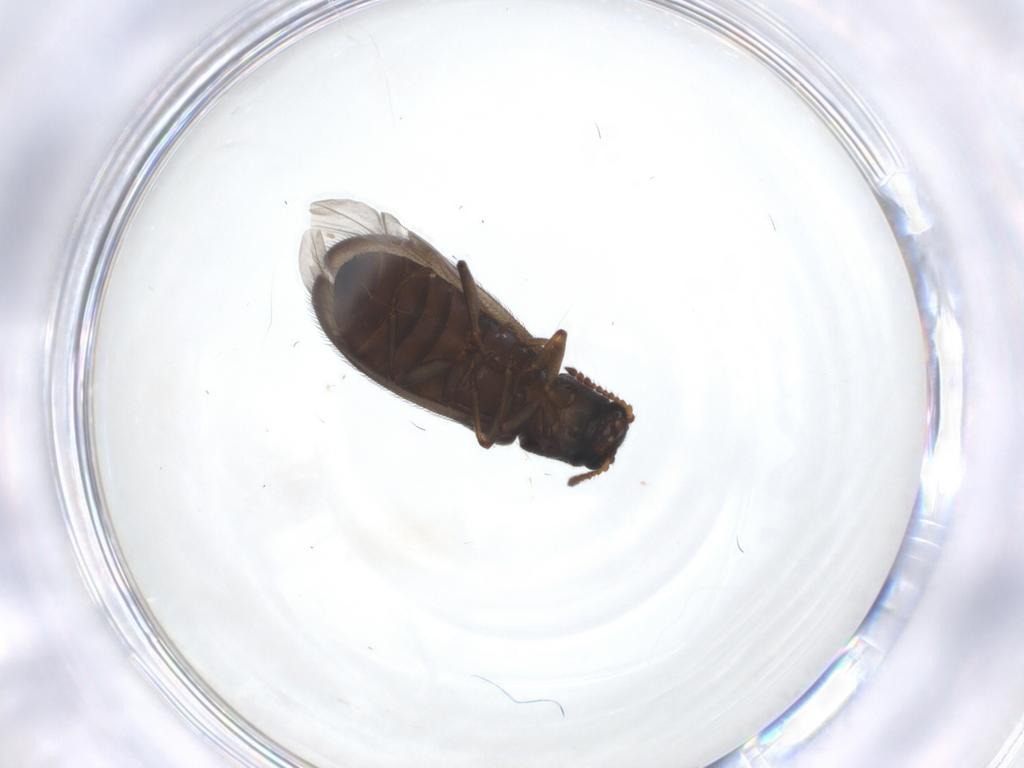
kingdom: Animalia
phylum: Arthropoda
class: Insecta
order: Coleoptera
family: Melyridae
